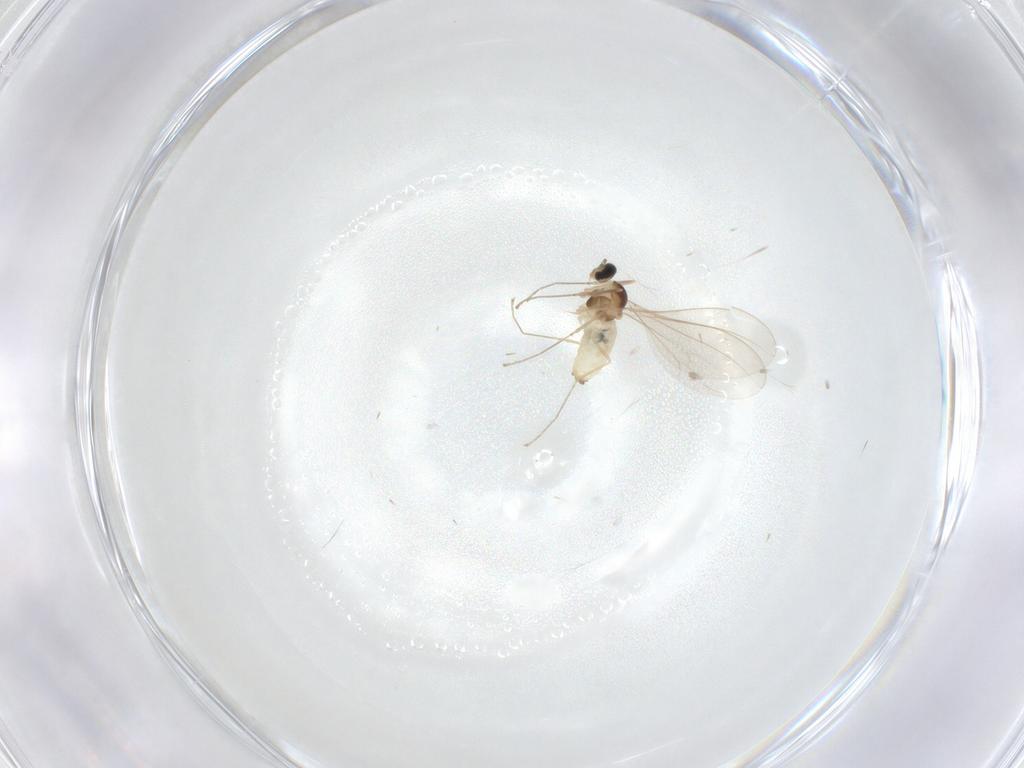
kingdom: Animalia
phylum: Arthropoda
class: Insecta
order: Diptera
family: Cecidomyiidae
